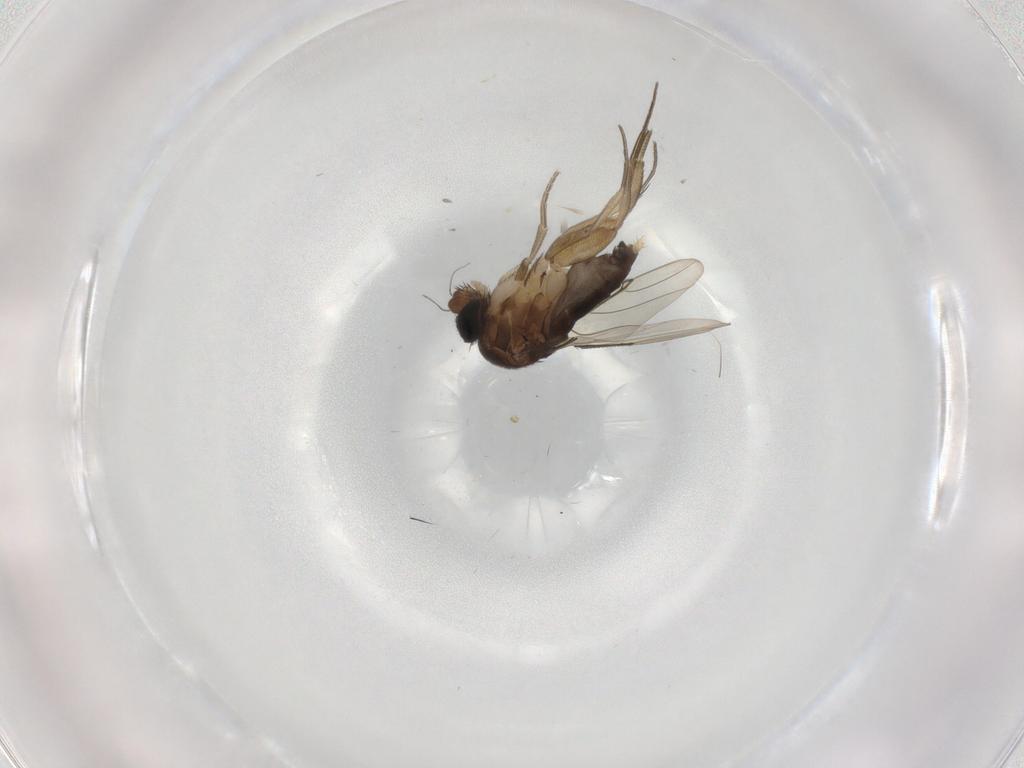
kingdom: Animalia
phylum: Arthropoda
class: Insecta
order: Diptera
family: Phoridae
